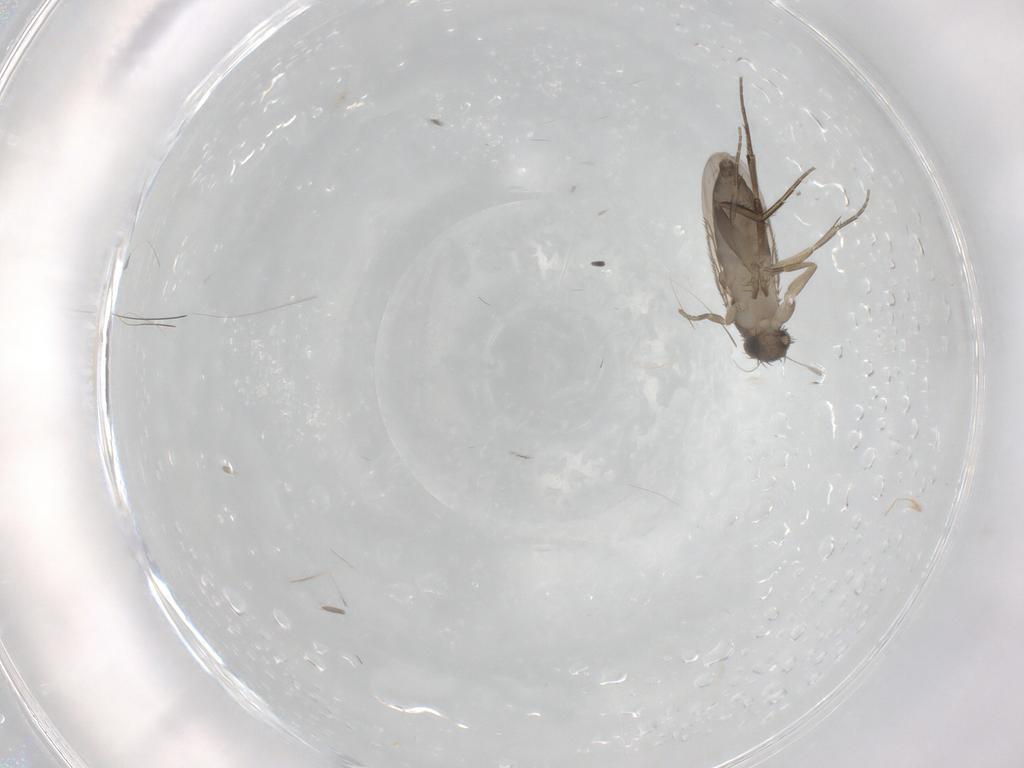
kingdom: Animalia
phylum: Arthropoda
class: Insecta
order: Diptera
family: Phoridae
